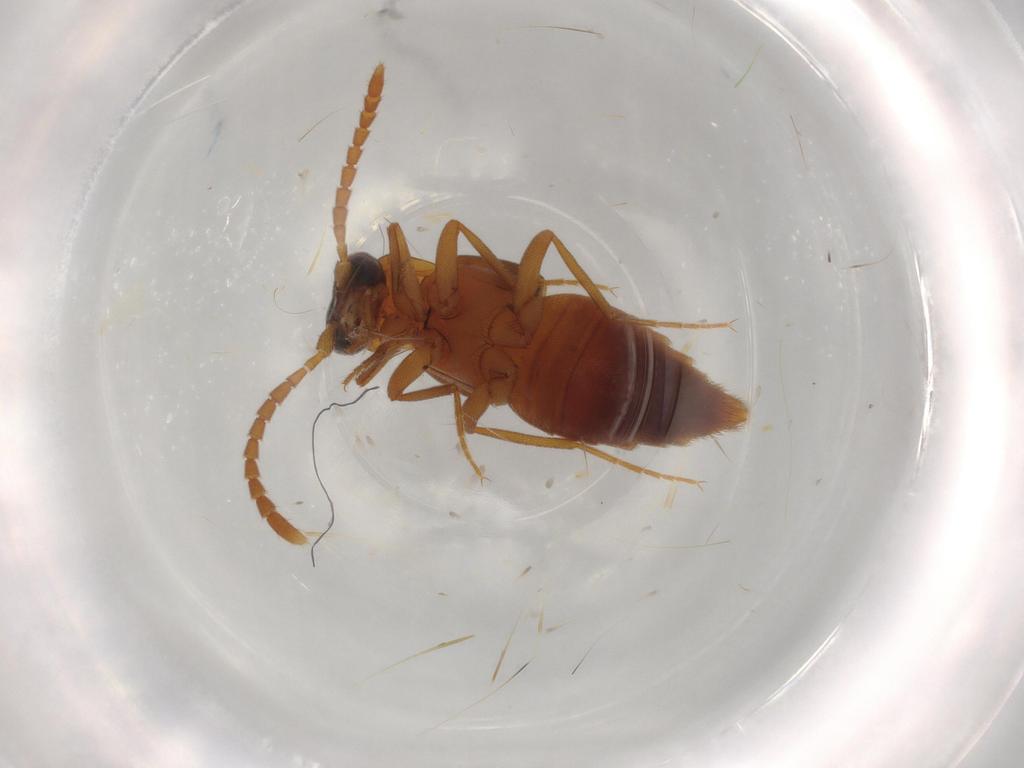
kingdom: Animalia
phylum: Arthropoda
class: Insecta
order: Coleoptera
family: Staphylinidae
